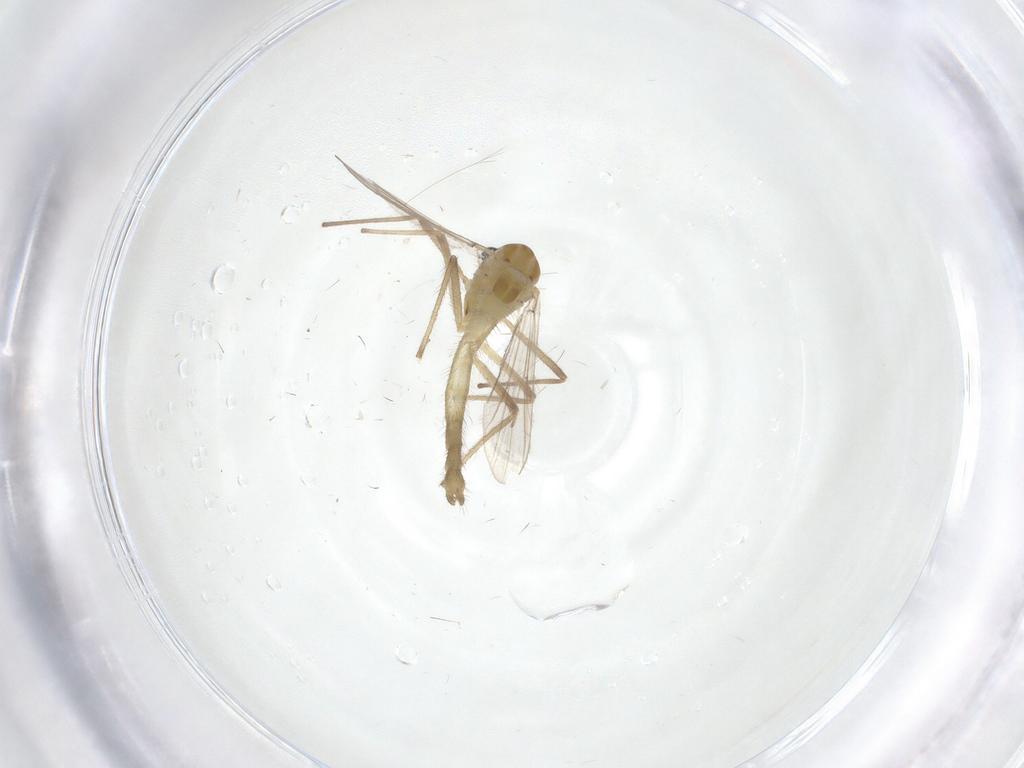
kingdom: Animalia
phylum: Arthropoda
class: Insecta
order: Diptera
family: Chironomidae
